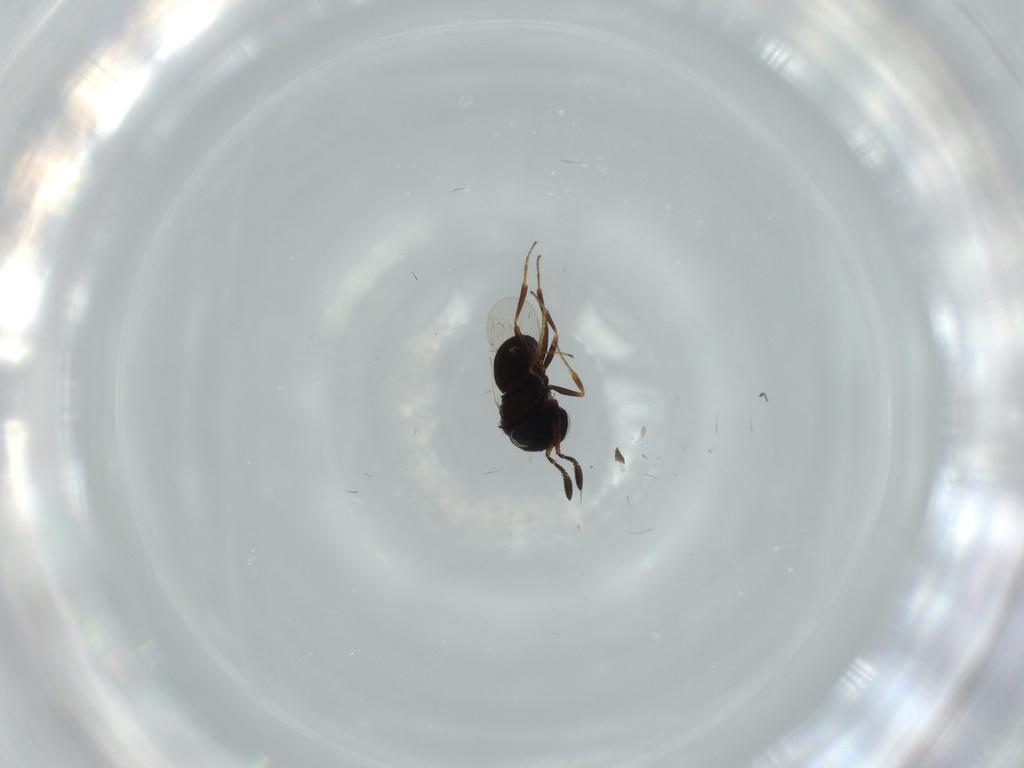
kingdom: Animalia
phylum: Arthropoda
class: Insecta
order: Hymenoptera
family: Scelionidae
